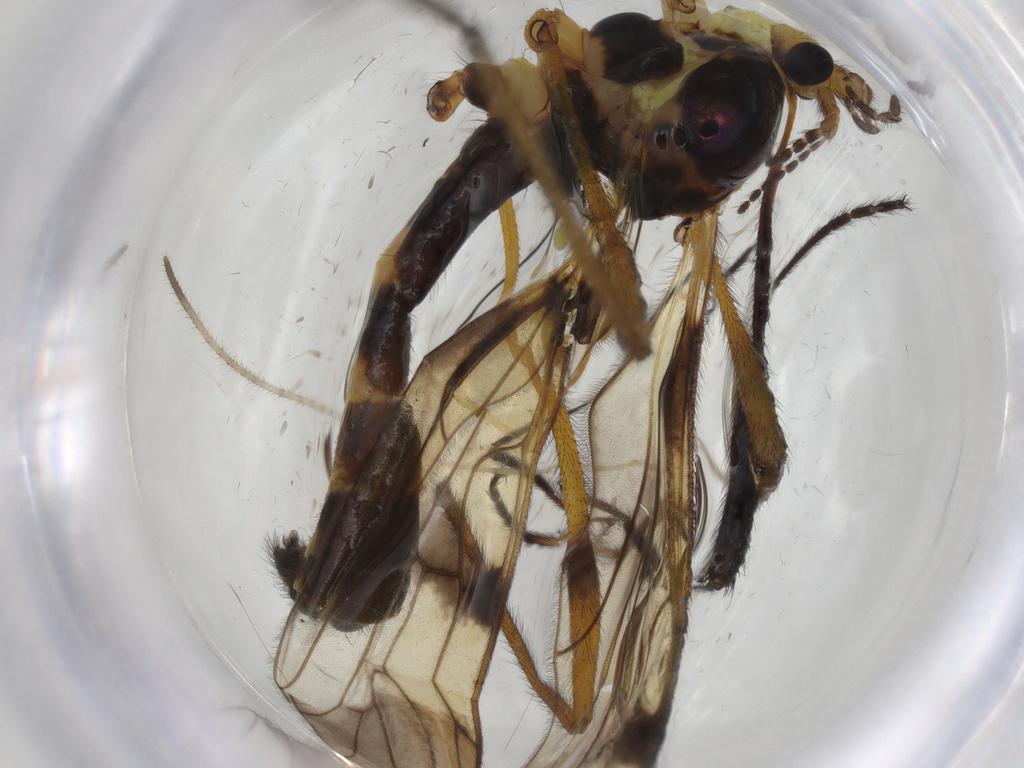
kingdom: Animalia
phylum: Arthropoda
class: Insecta
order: Diptera
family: Limoniidae
